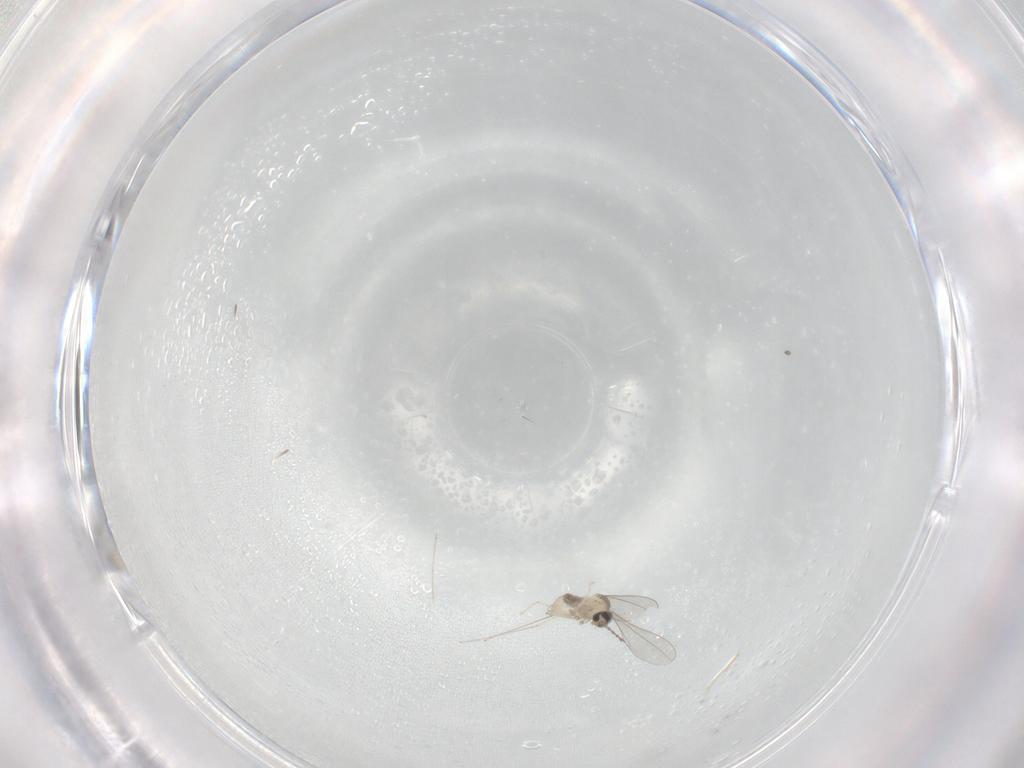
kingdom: Animalia
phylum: Arthropoda
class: Insecta
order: Diptera
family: Cecidomyiidae
